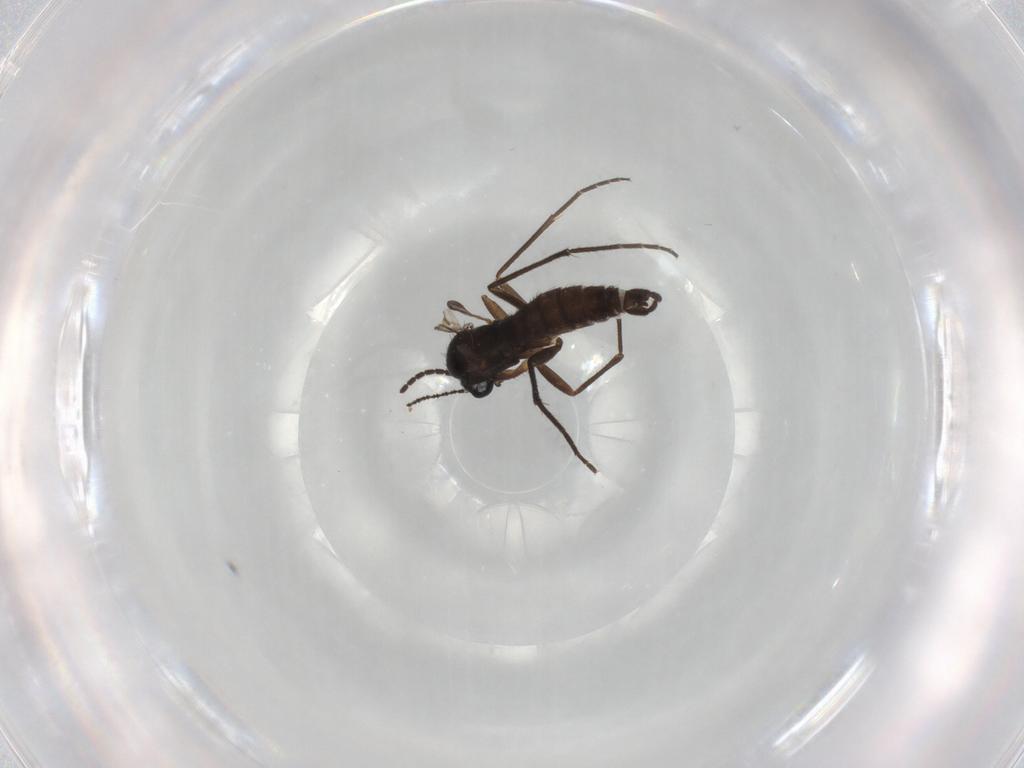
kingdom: Animalia
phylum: Arthropoda
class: Insecta
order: Diptera
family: Sciaridae
